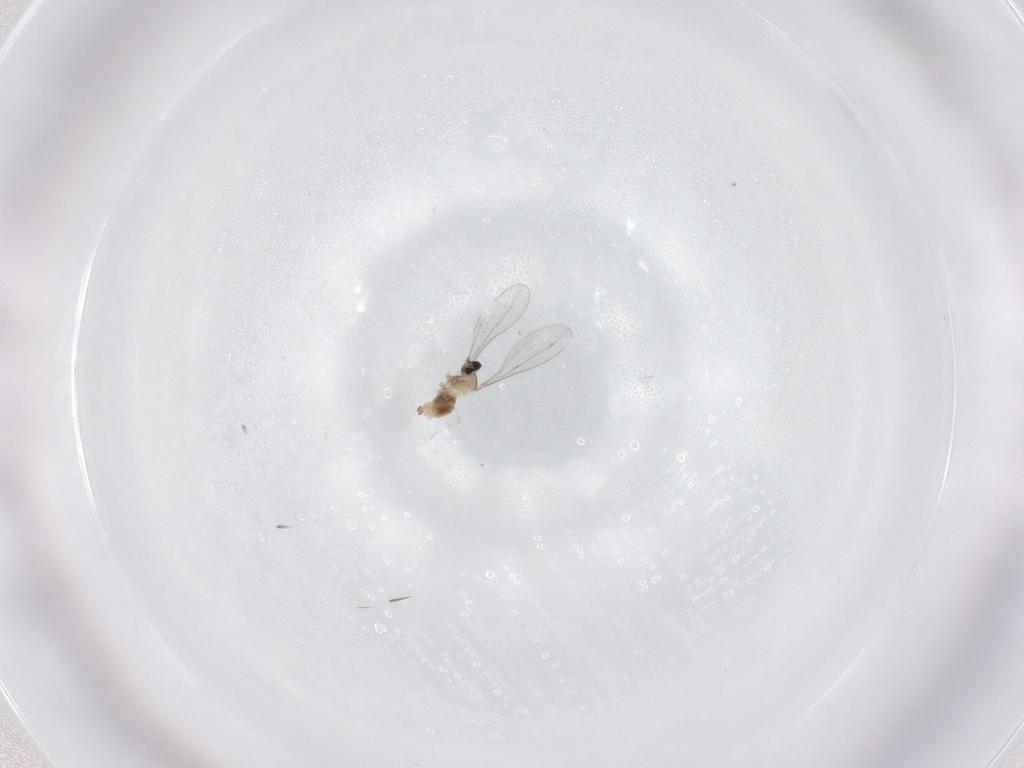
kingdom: Animalia
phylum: Arthropoda
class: Insecta
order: Diptera
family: Cecidomyiidae
